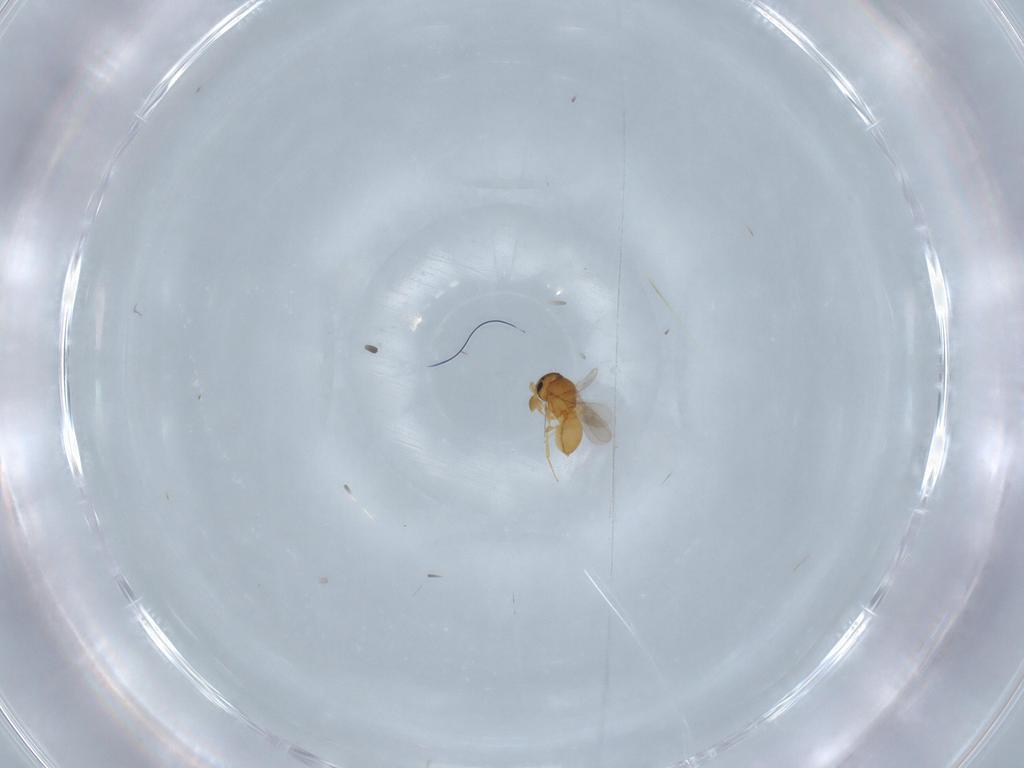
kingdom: Animalia
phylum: Arthropoda
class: Insecta
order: Hymenoptera
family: Scelionidae
